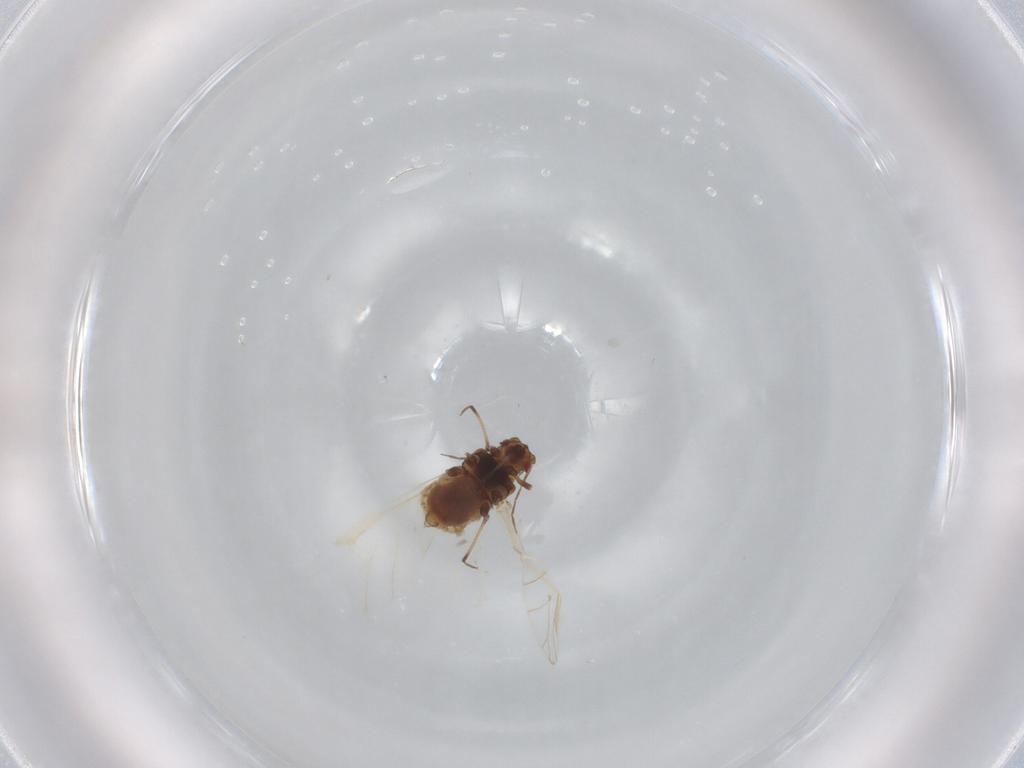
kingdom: Animalia
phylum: Arthropoda
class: Insecta
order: Hemiptera
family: Aphididae
